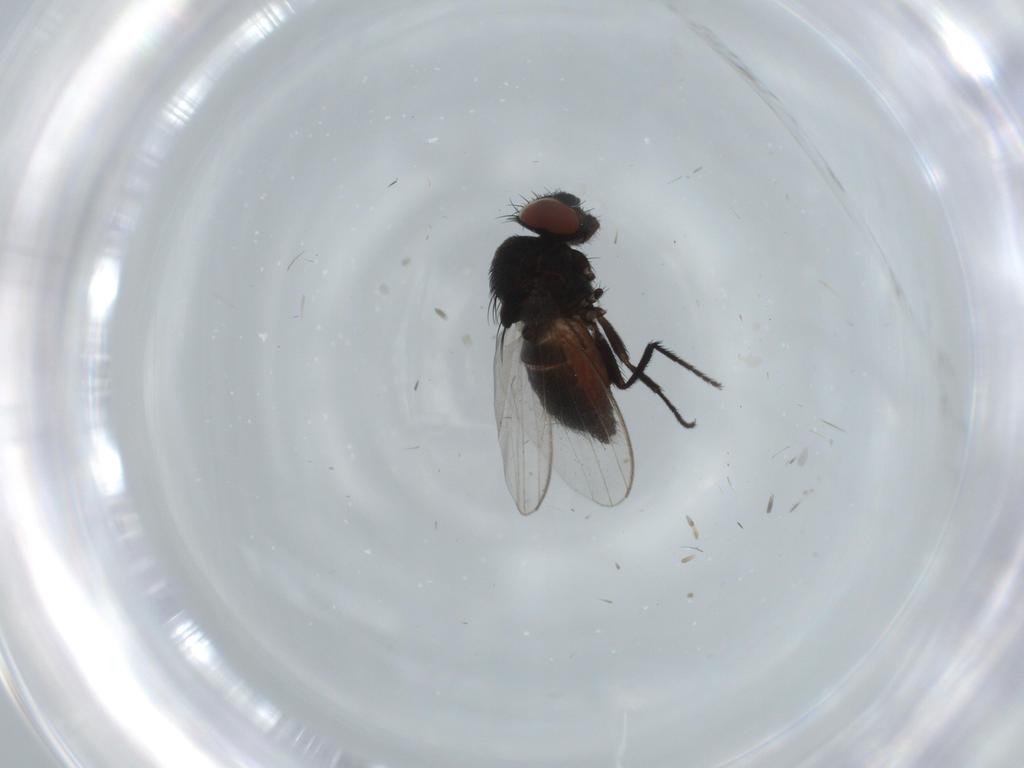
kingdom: Animalia
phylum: Arthropoda
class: Insecta
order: Diptera
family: Milichiidae
